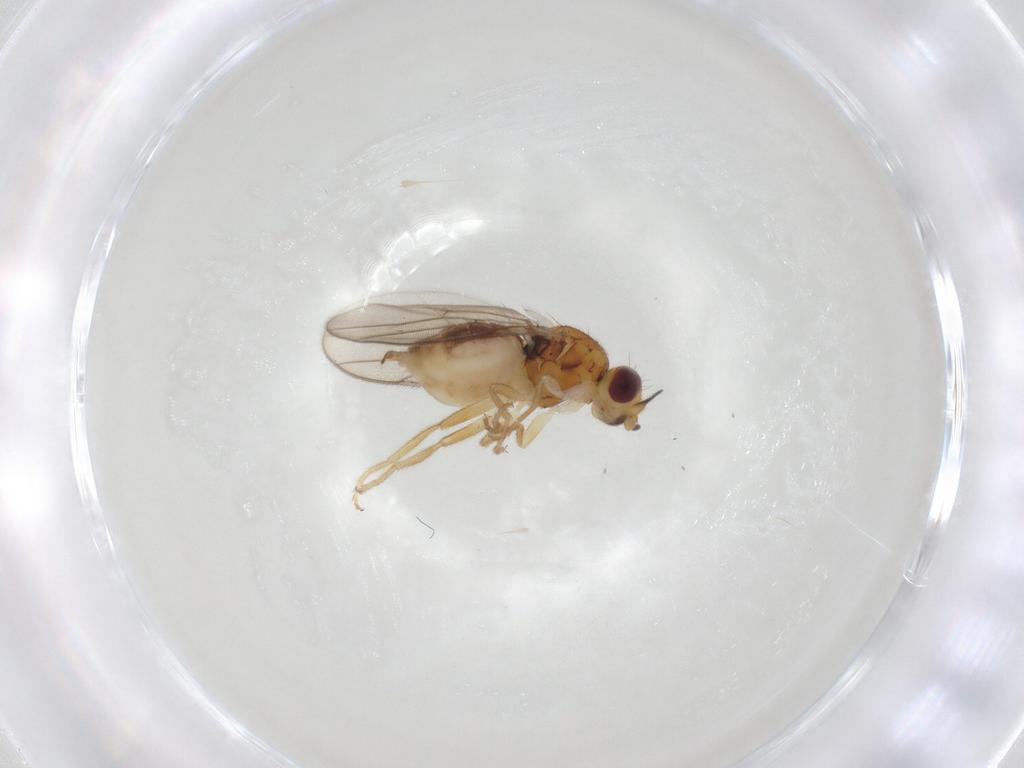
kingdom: Animalia
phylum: Arthropoda
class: Insecta
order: Diptera
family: Chloropidae
